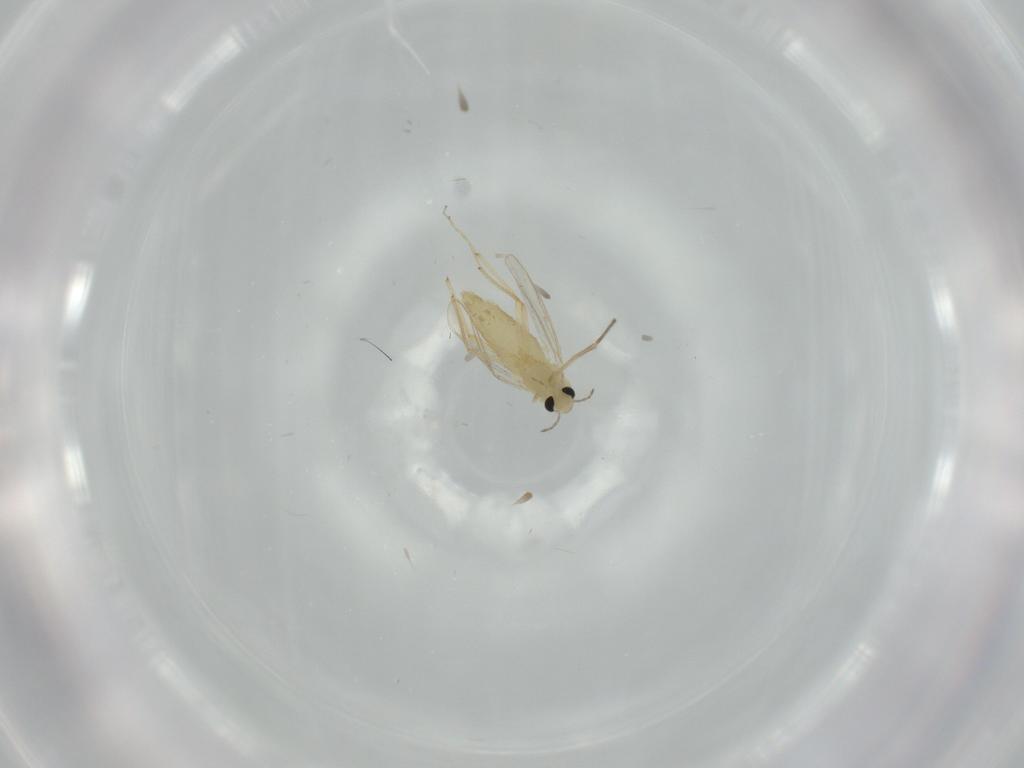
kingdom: Animalia
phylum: Arthropoda
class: Insecta
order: Diptera
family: Chironomidae
